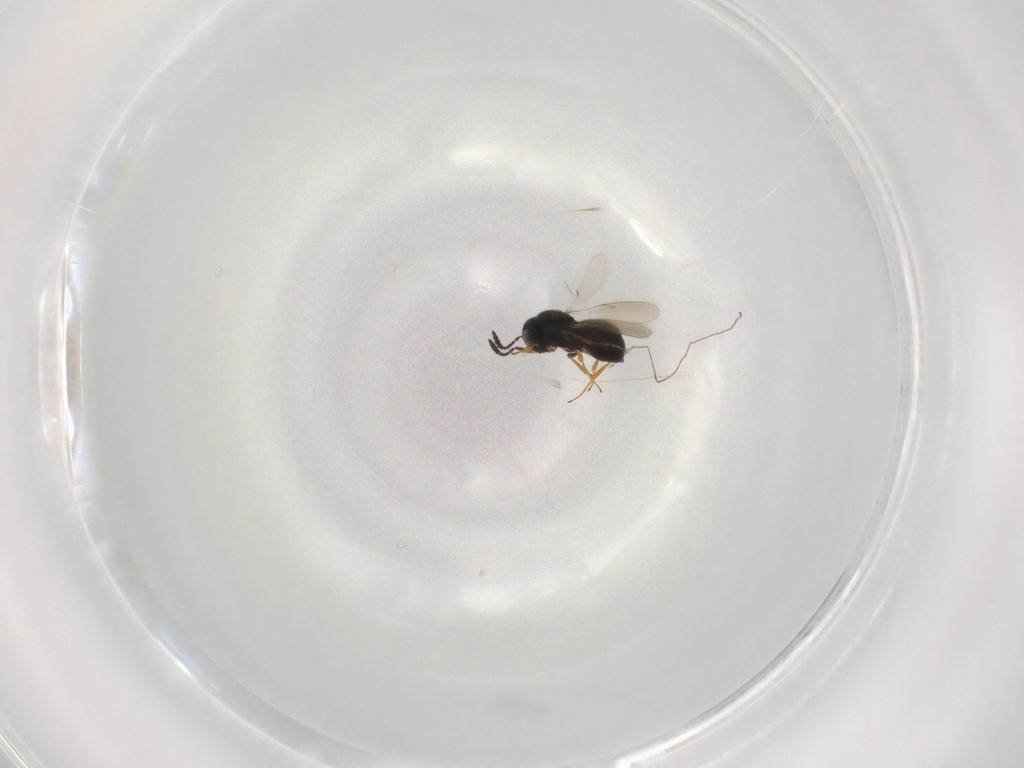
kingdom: Animalia
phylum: Arthropoda
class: Insecta
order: Hymenoptera
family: Scelionidae
